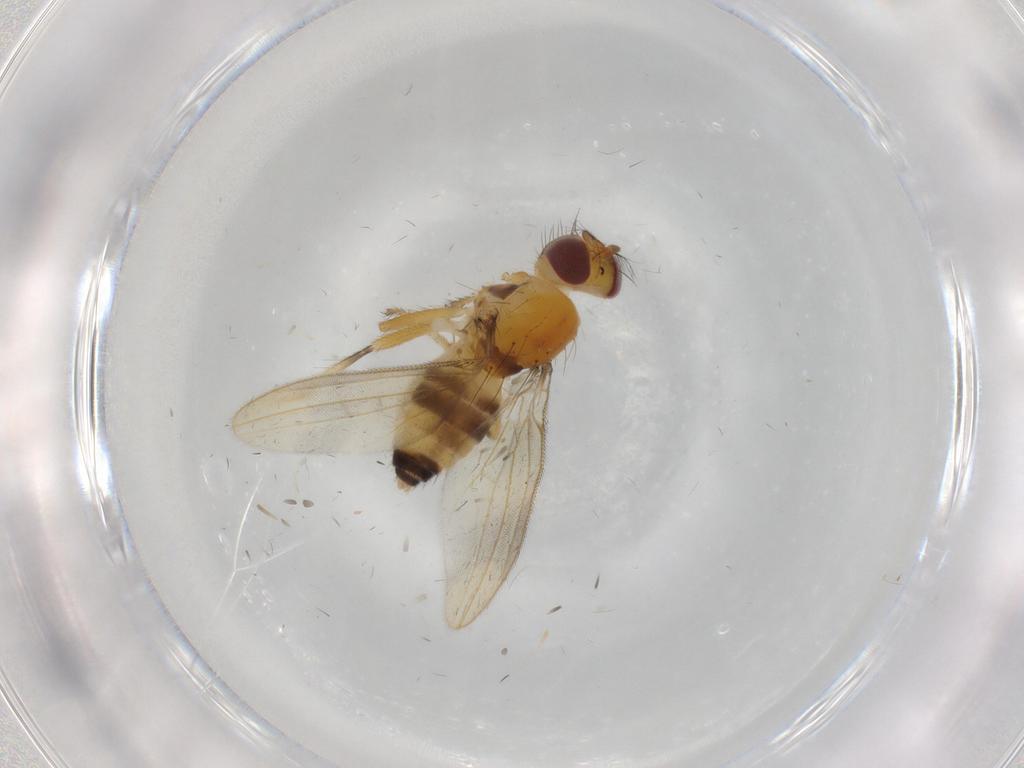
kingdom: Animalia
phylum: Arthropoda
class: Insecta
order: Diptera
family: Periscelididae
